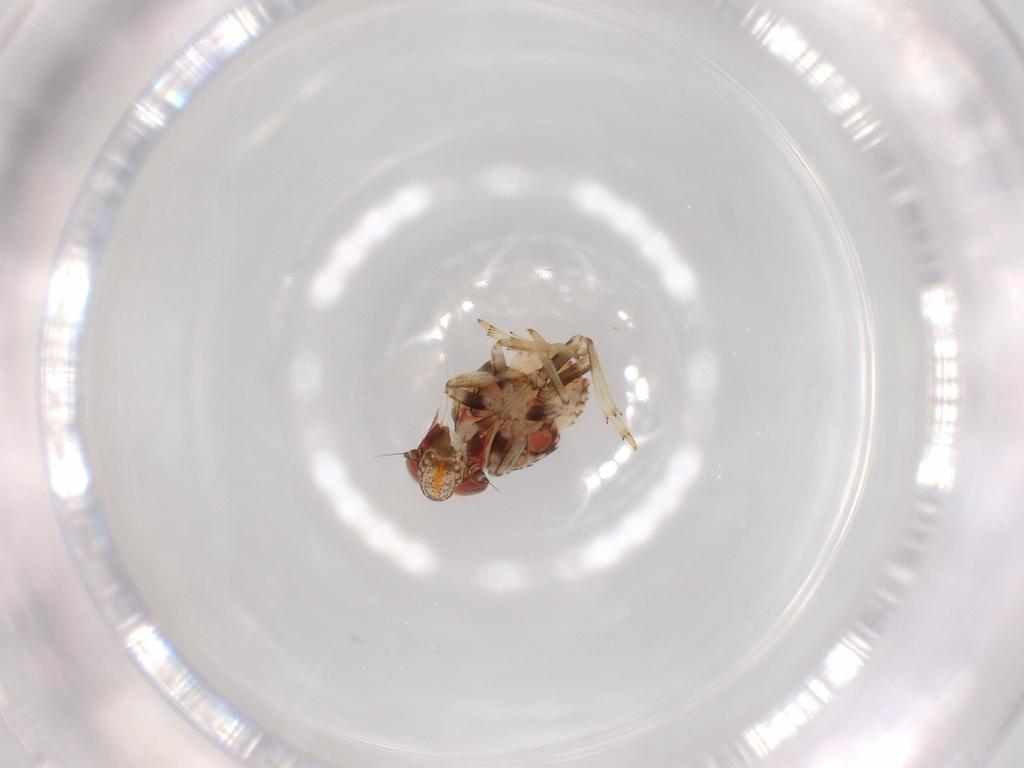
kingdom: Animalia
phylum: Arthropoda
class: Insecta
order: Hemiptera
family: Issidae
